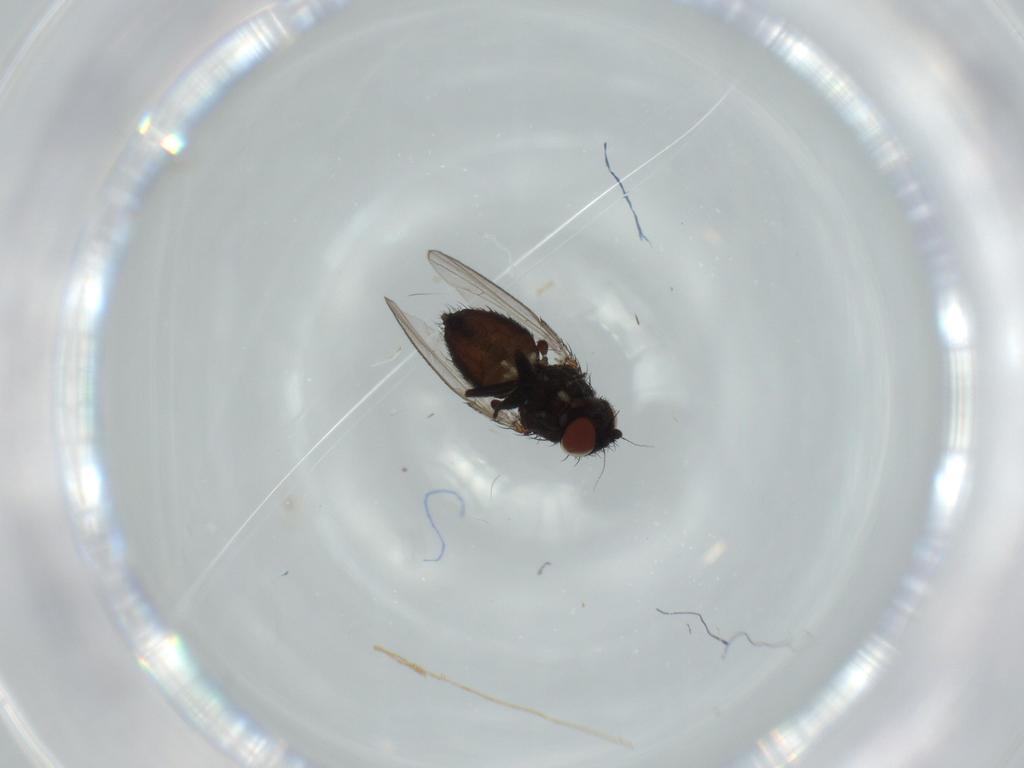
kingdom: Animalia
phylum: Arthropoda
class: Insecta
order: Diptera
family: Milichiidae
